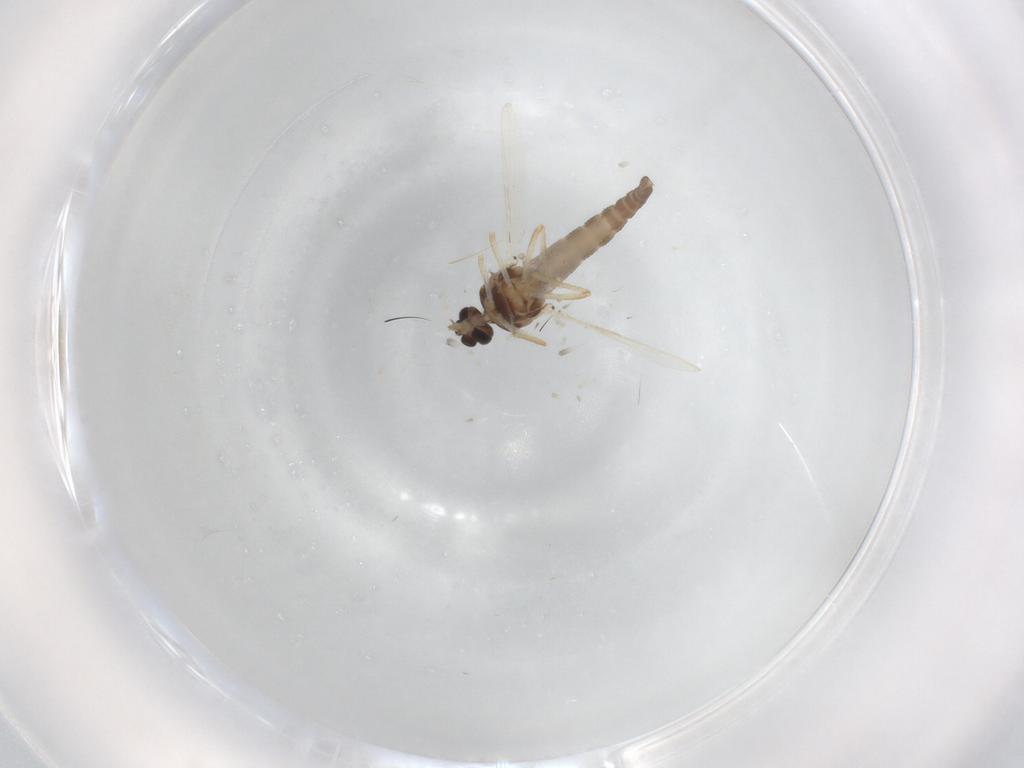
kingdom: Animalia
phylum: Arthropoda
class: Insecta
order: Diptera
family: Ceratopogonidae
